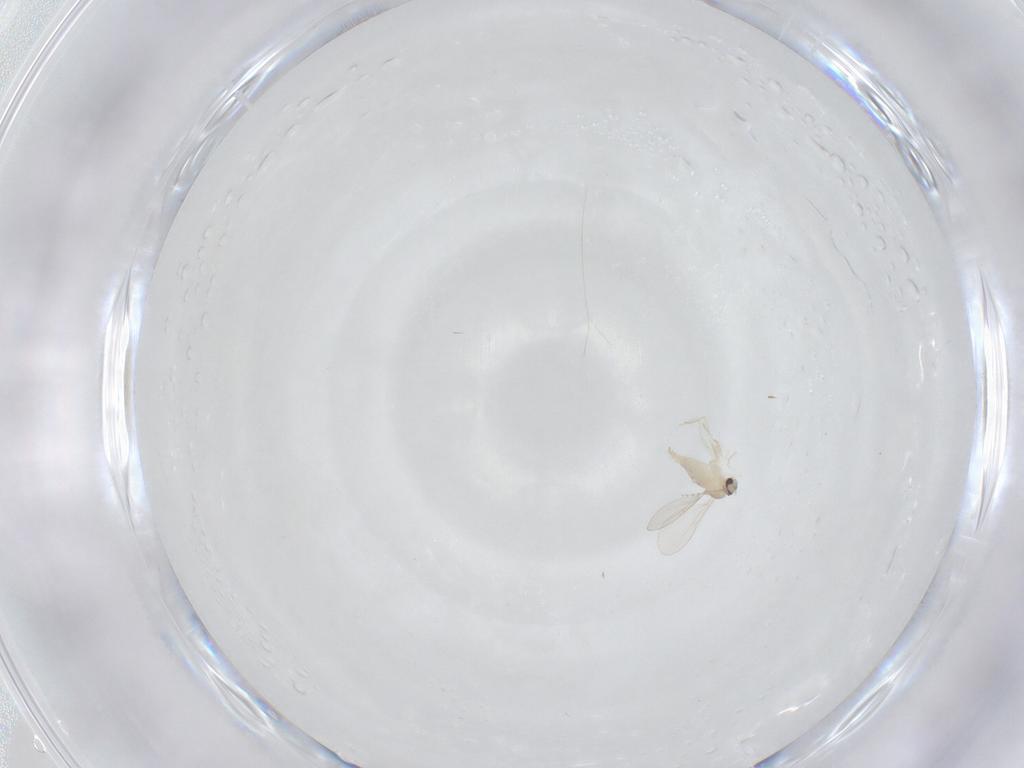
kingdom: Animalia
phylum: Arthropoda
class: Insecta
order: Diptera
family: Cecidomyiidae
